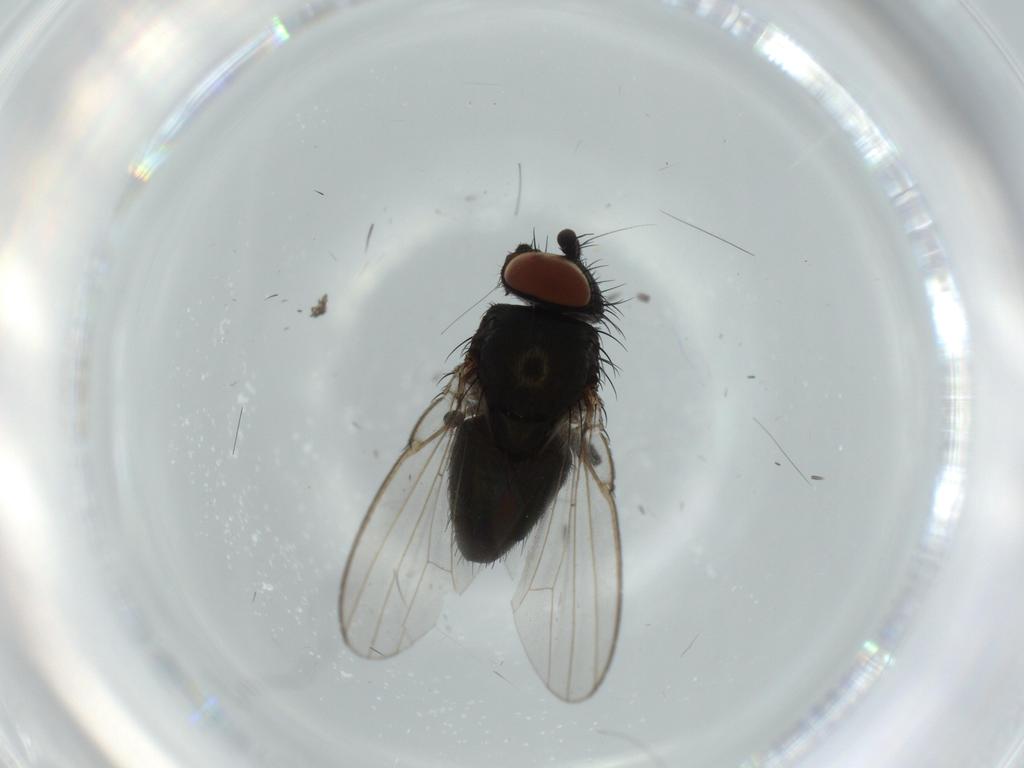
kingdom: Animalia
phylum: Arthropoda
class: Insecta
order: Diptera
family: Milichiidae
